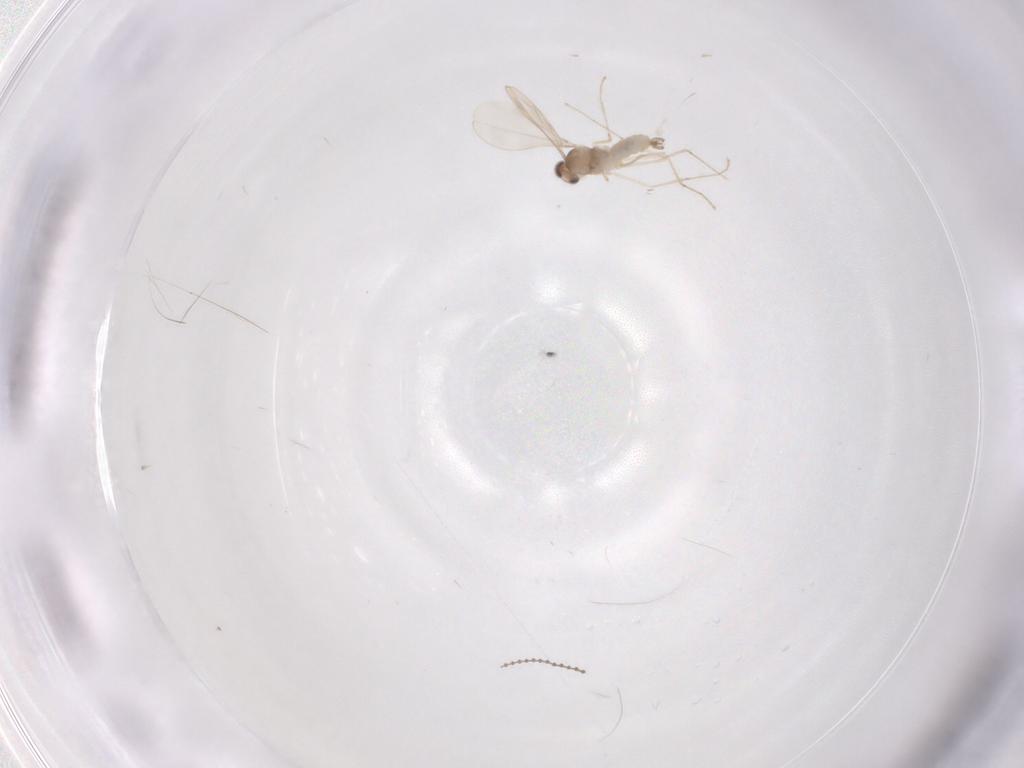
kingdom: Animalia
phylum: Arthropoda
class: Insecta
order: Diptera
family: Cecidomyiidae
